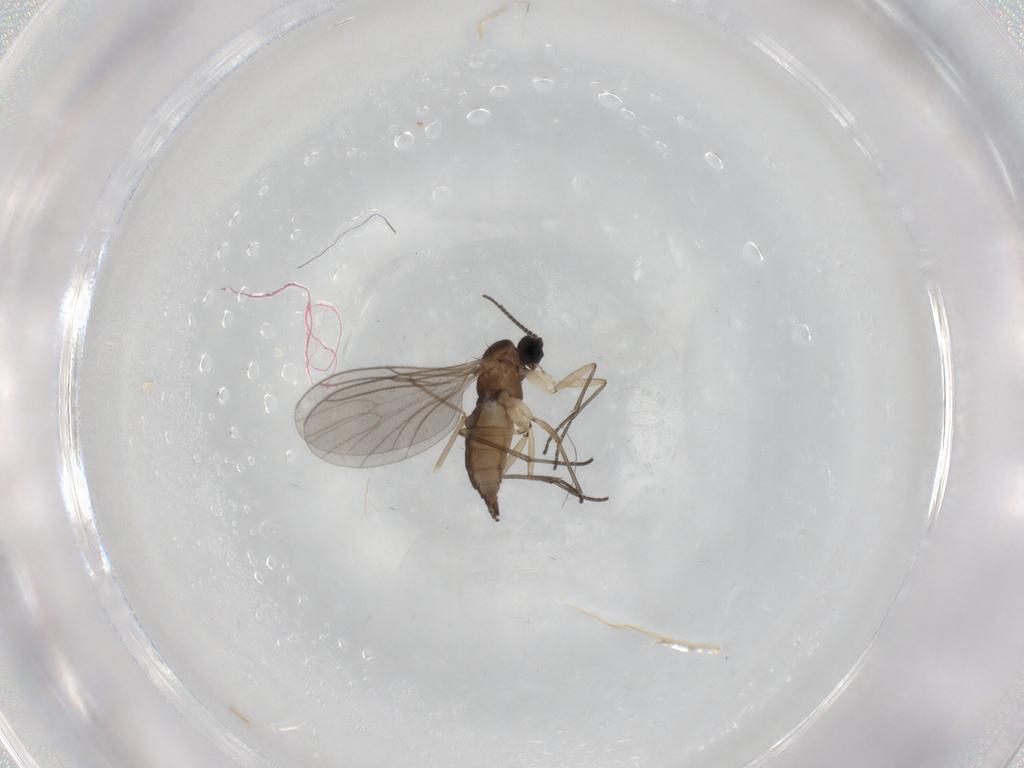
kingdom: Animalia
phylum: Arthropoda
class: Insecta
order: Diptera
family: Sciaridae
